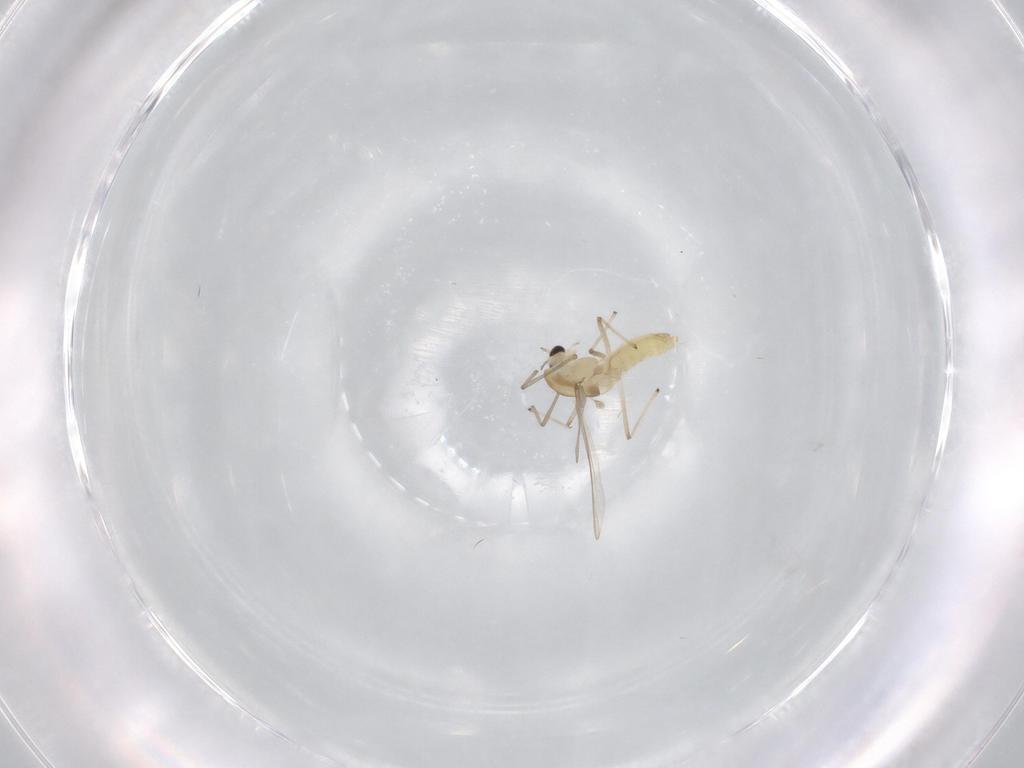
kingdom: Animalia
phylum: Arthropoda
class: Insecta
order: Diptera
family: Chironomidae
